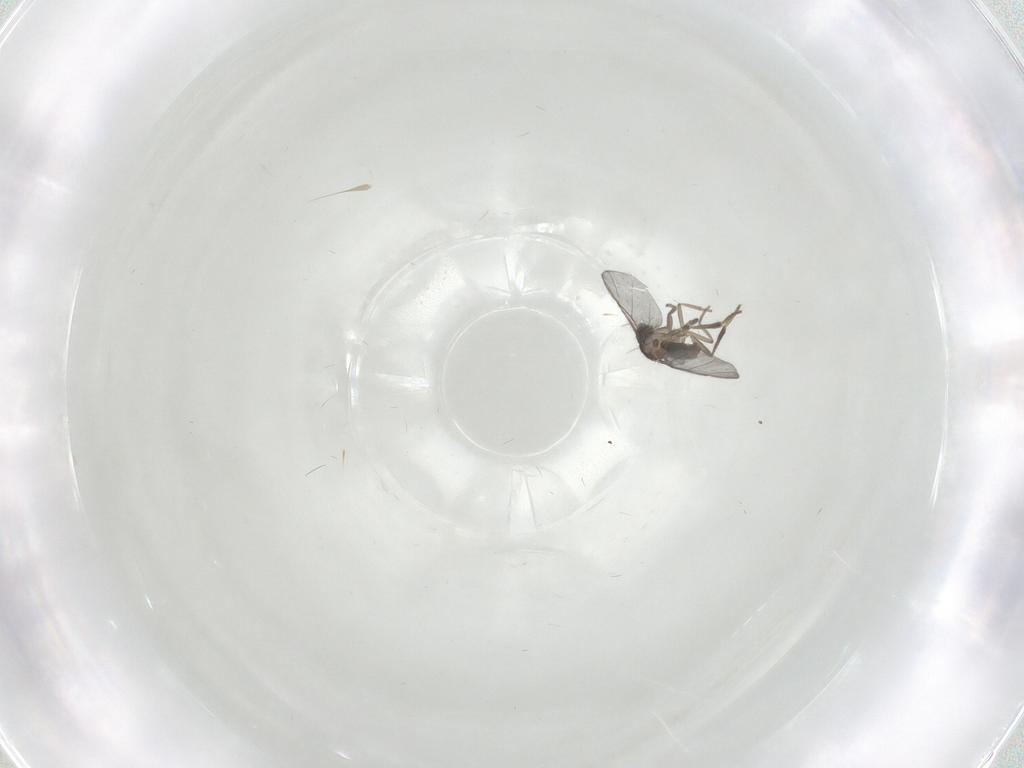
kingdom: Animalia
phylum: Arthropoda
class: Insecta
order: Diptera
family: Phoridae
